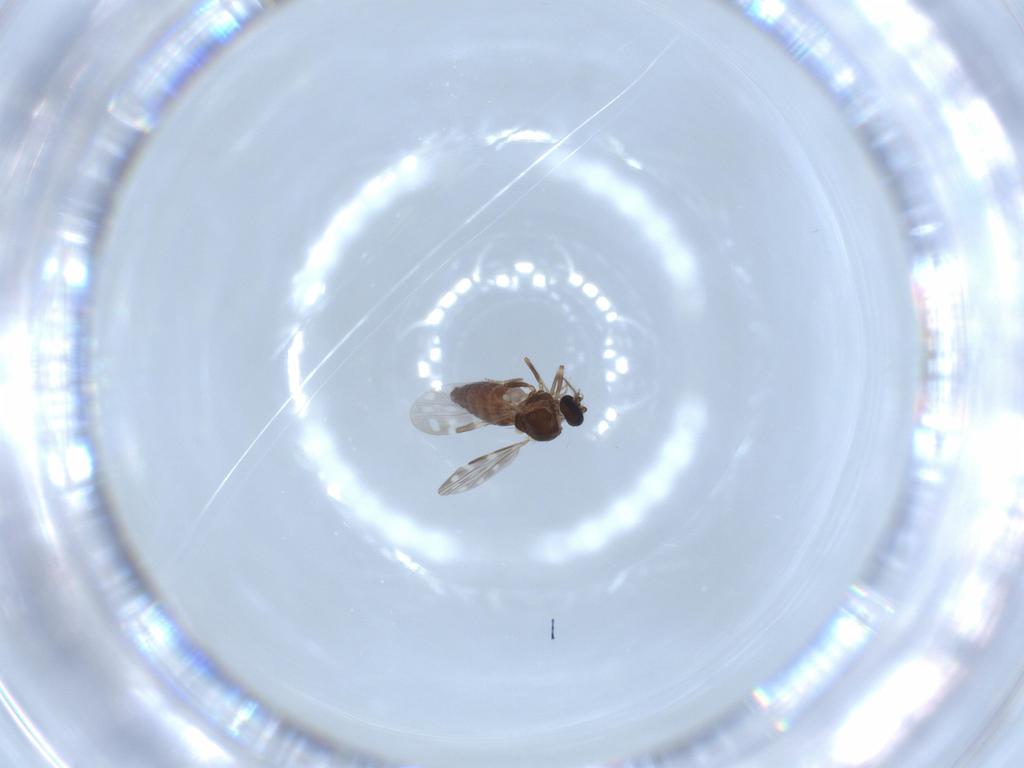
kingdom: Animalia
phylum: Arthropoda
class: Insecta
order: Diptera
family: Ceratopogonidae
